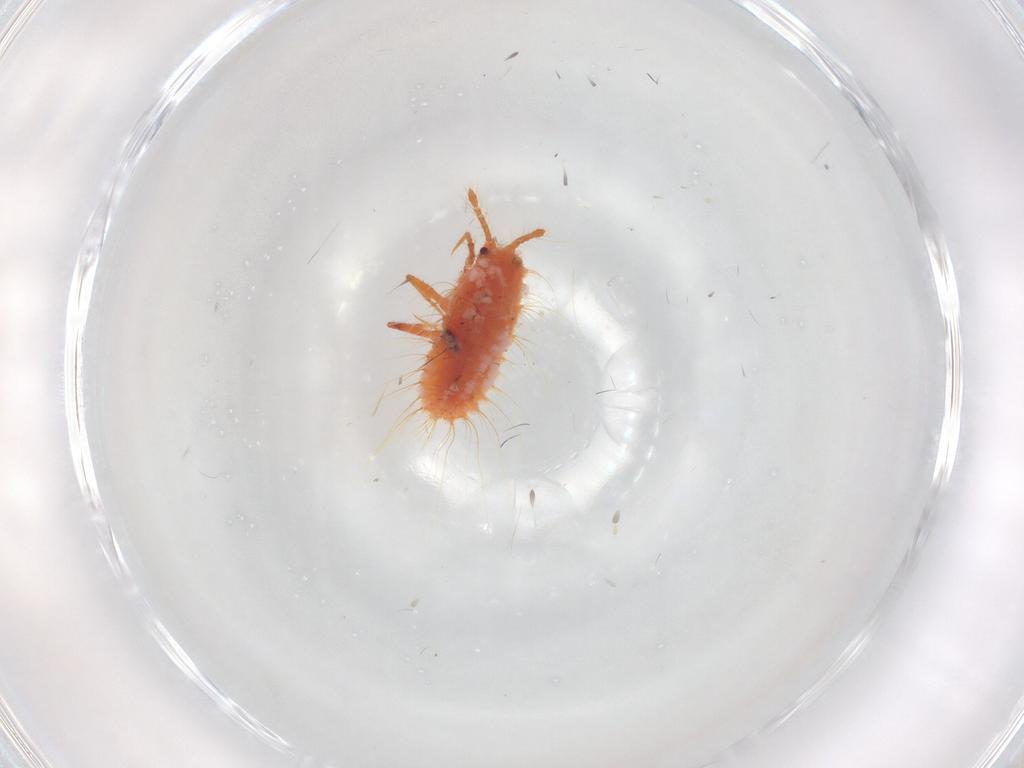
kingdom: Animalia
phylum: Arthropoda
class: Insecta
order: Hemiptera
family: Coccoidea_incertae_sedis
